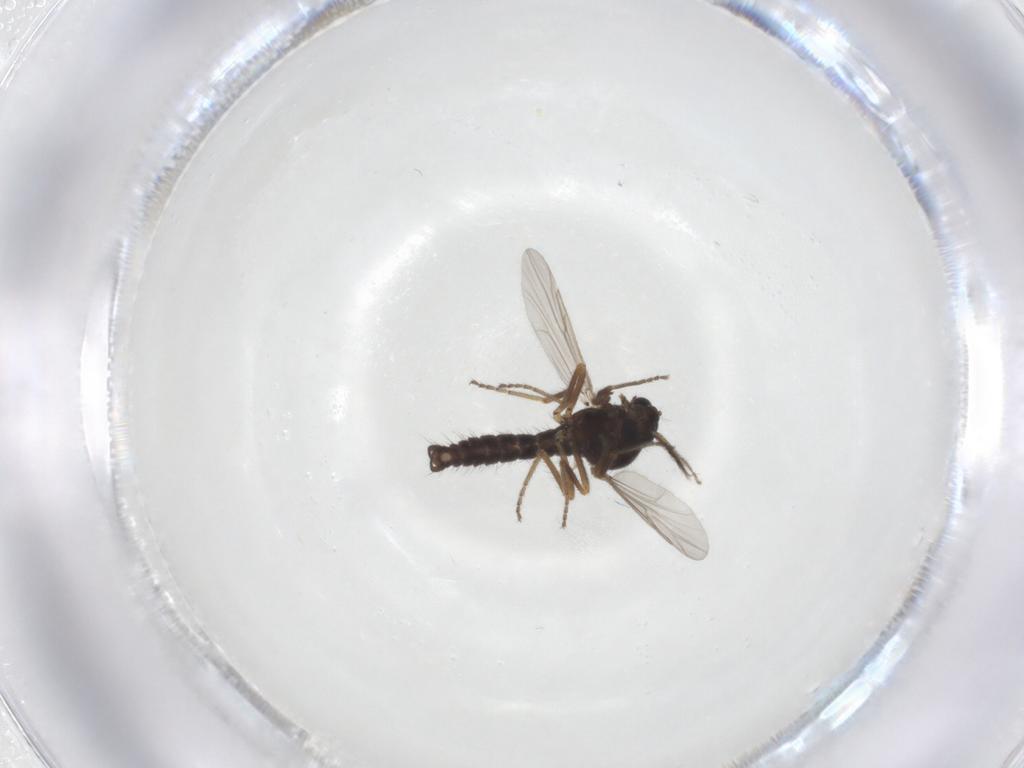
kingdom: Animalia
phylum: Arthropoda
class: Insecta
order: Diptera
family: Ceratopogonidae
